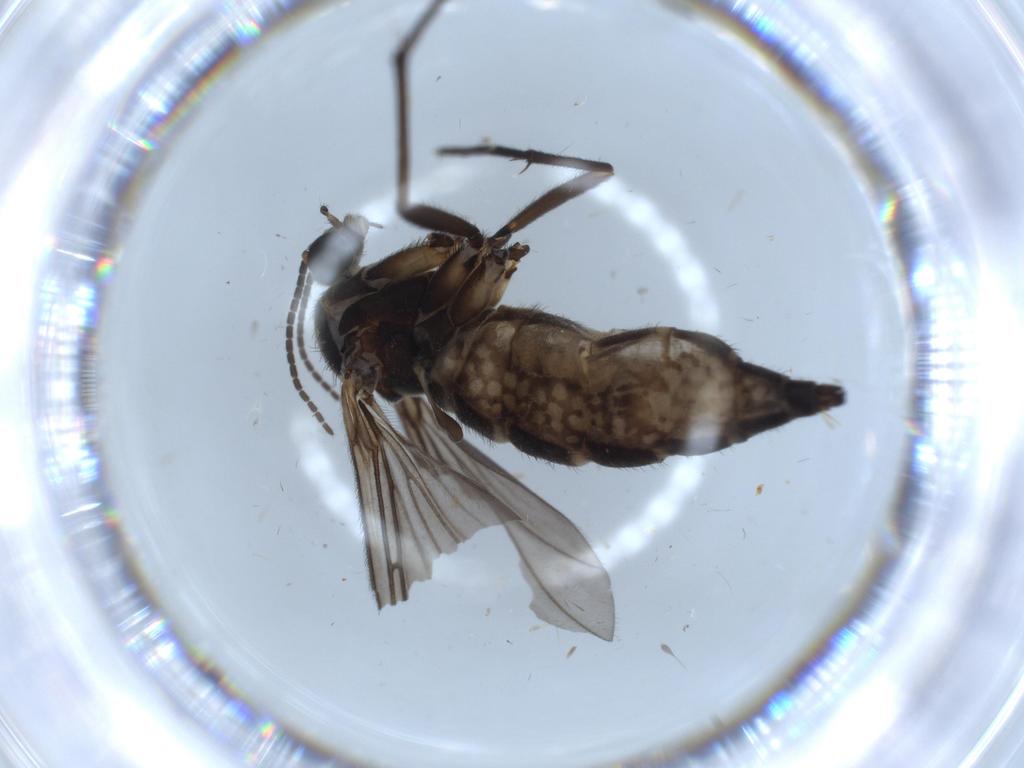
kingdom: Animalia
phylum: Arthropoda
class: Insecta
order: Diptera
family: Sciaridae
